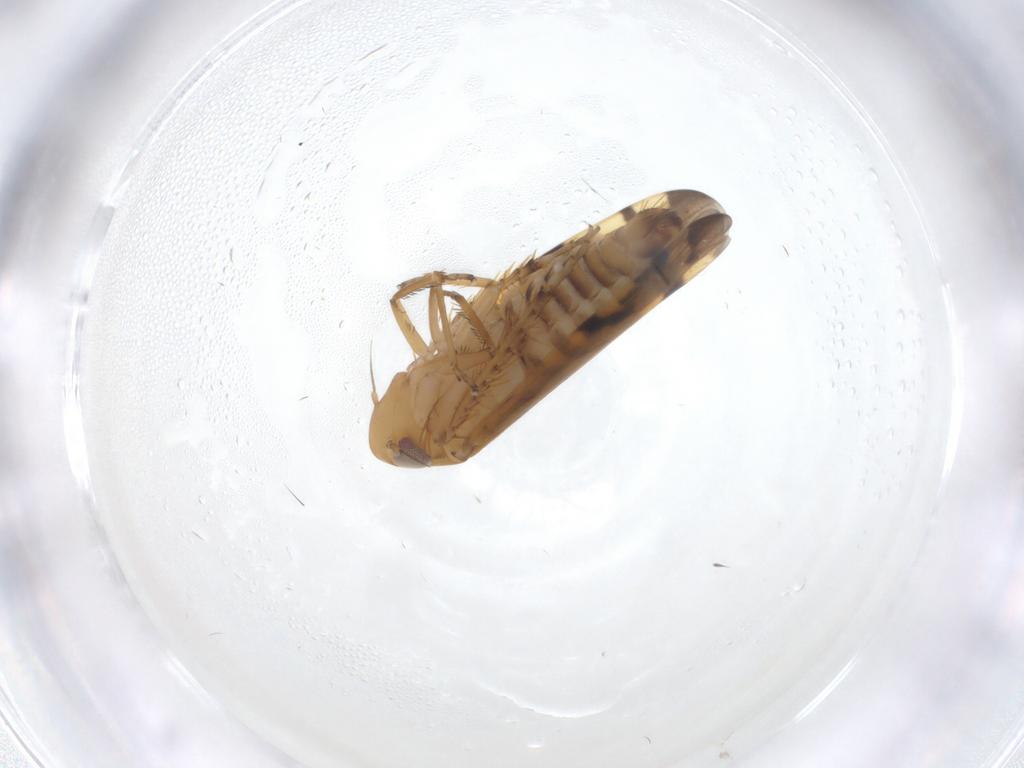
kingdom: Animalia
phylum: Arthropoda
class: Insecta
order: Hemiptera
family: Cicadellidae
